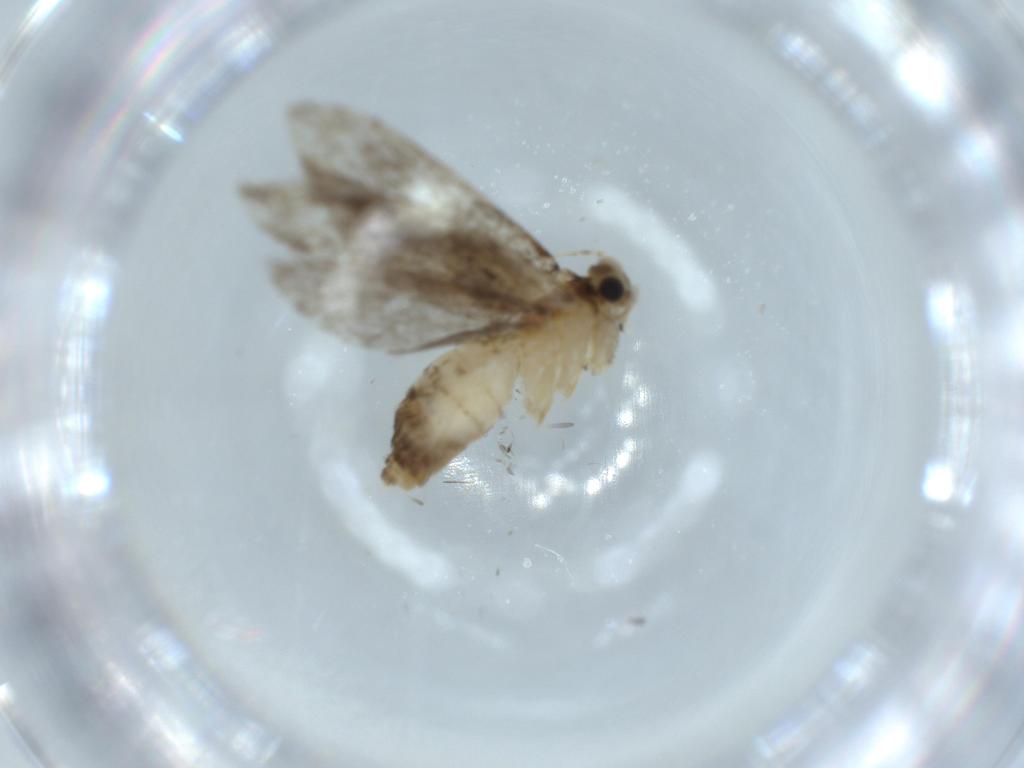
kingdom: Animalia
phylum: Arthropoda
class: Insecta
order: Lepidoptera
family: Tineidae
